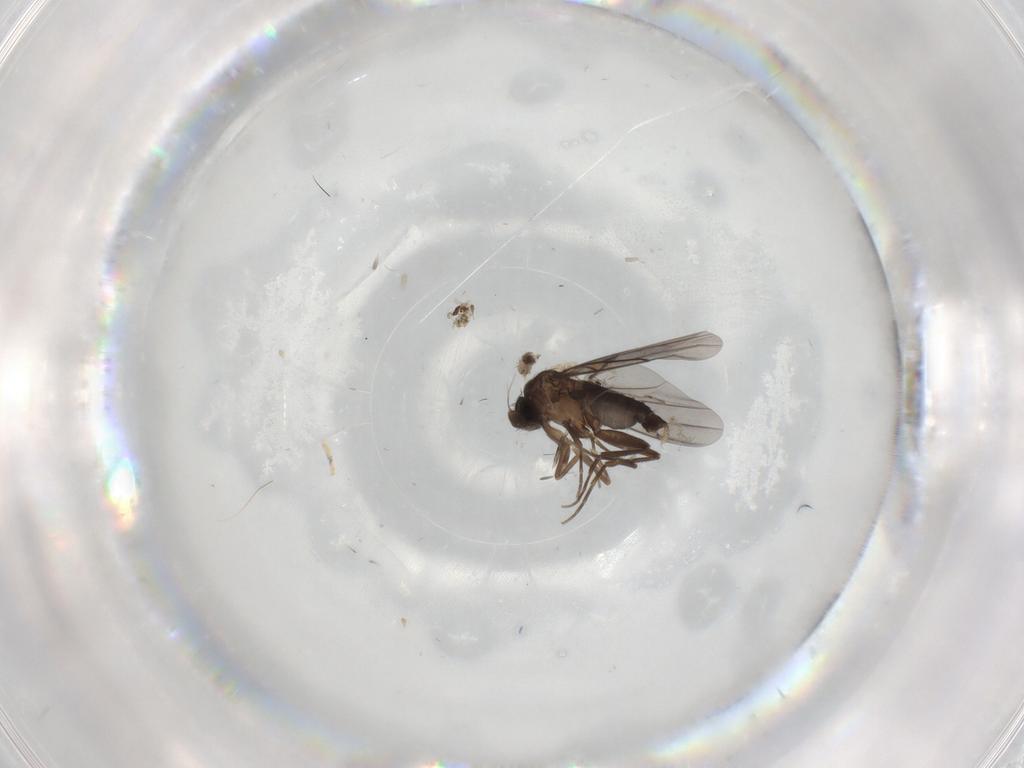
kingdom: Animalia
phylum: Arthropoda
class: Insecta
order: Diptera
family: Cecidomyiidae
